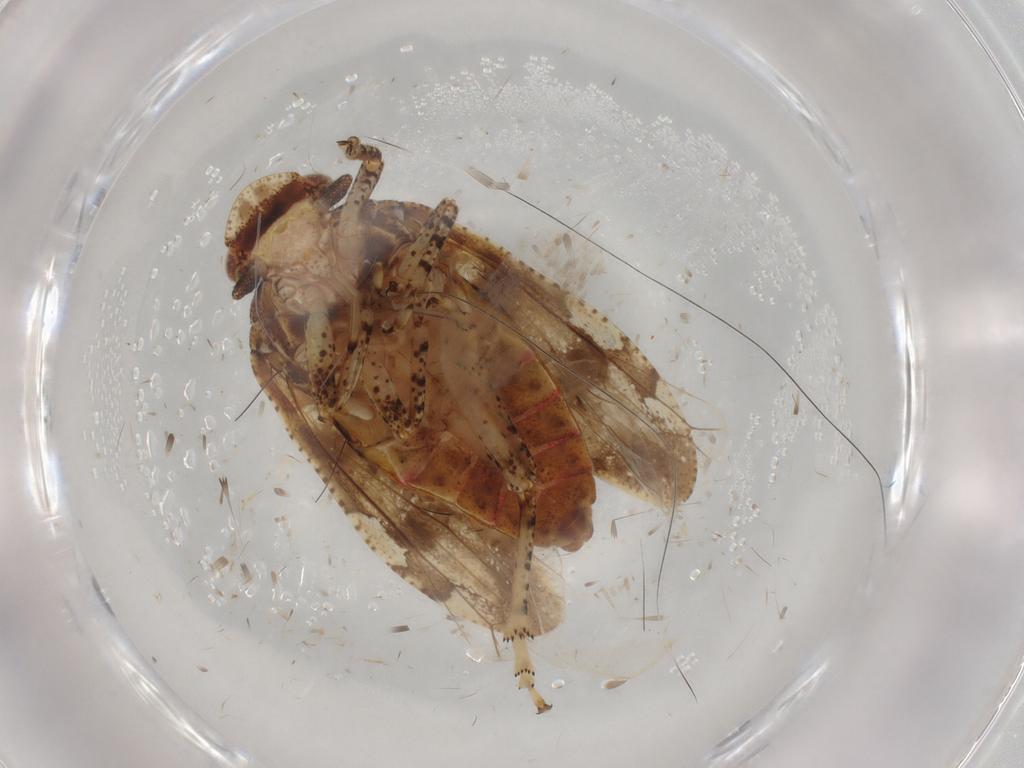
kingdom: Animalia
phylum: Arthropoda
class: Insecta
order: Hemiptera
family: Tettigometridae
